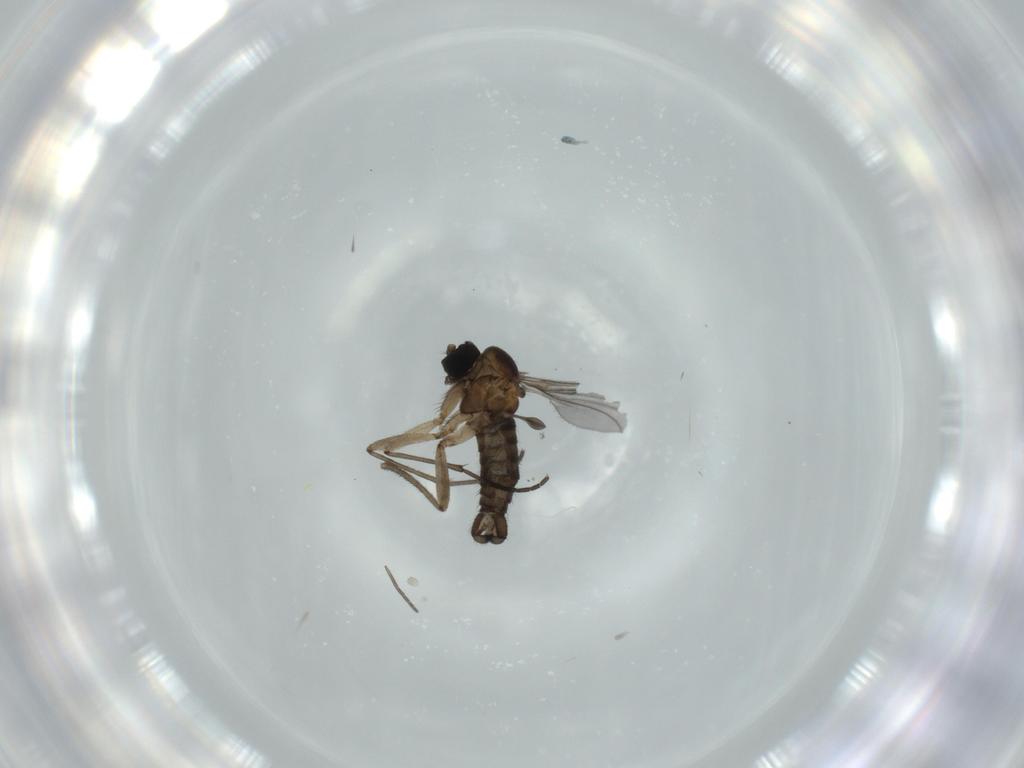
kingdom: Animalia
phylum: Arthropoda
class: Insecta
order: Diptera
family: Sciaridae
